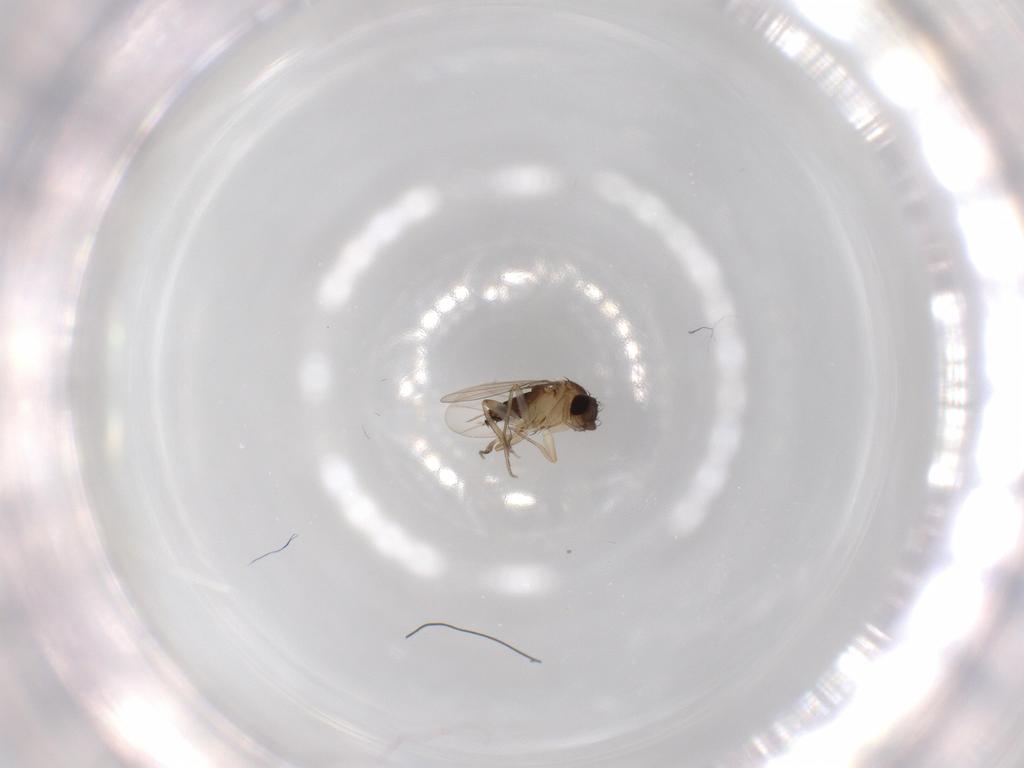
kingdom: Animalia
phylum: Arthropoda
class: Insecta
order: Diptera
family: Phoridae
